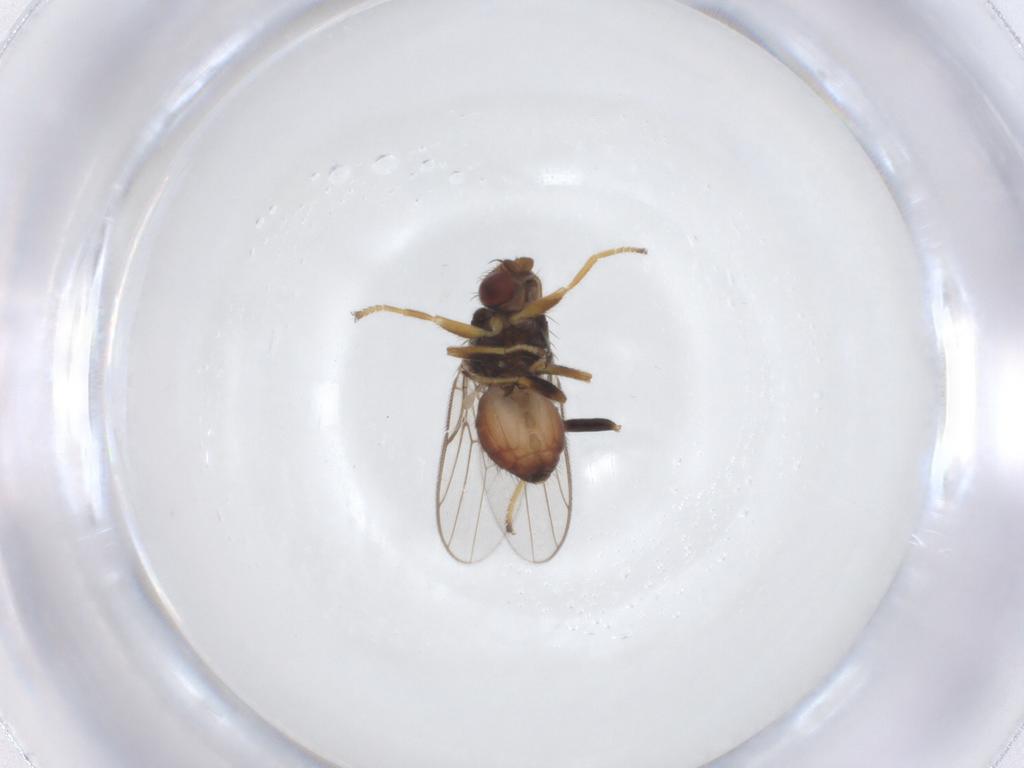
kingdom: Animalia
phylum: Arthropoda
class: Insecta
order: Diptera
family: Chloropidae
